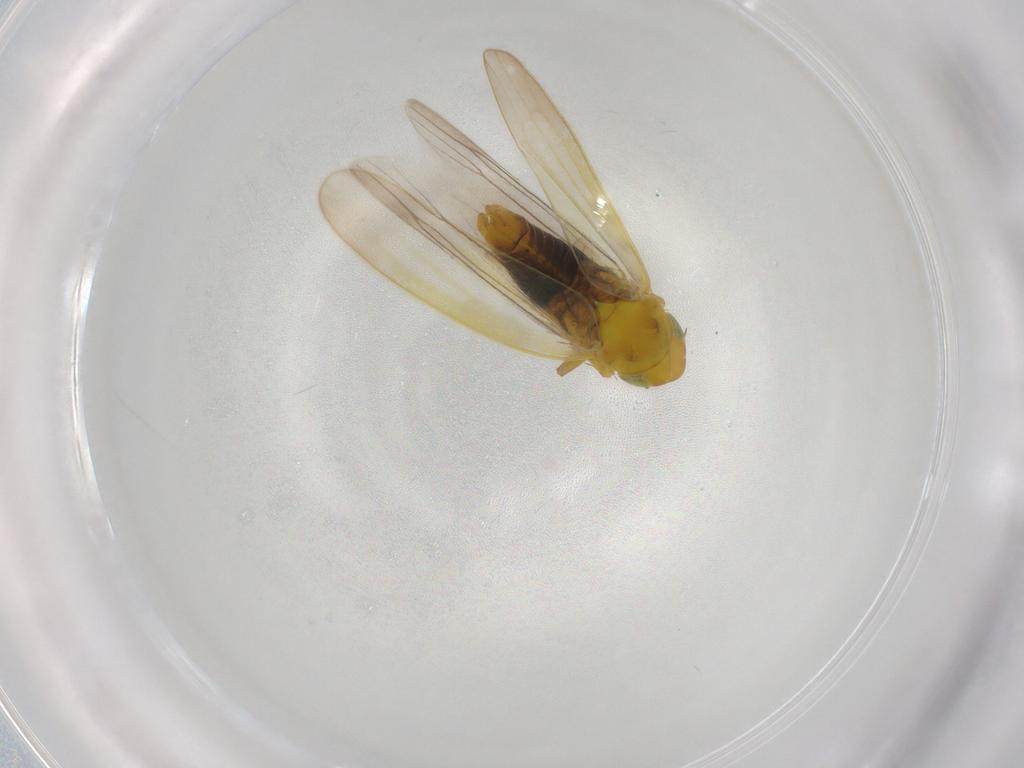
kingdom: Animalia
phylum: Arthropoda
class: Insecta
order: Hemiptera
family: Cicadellidae
